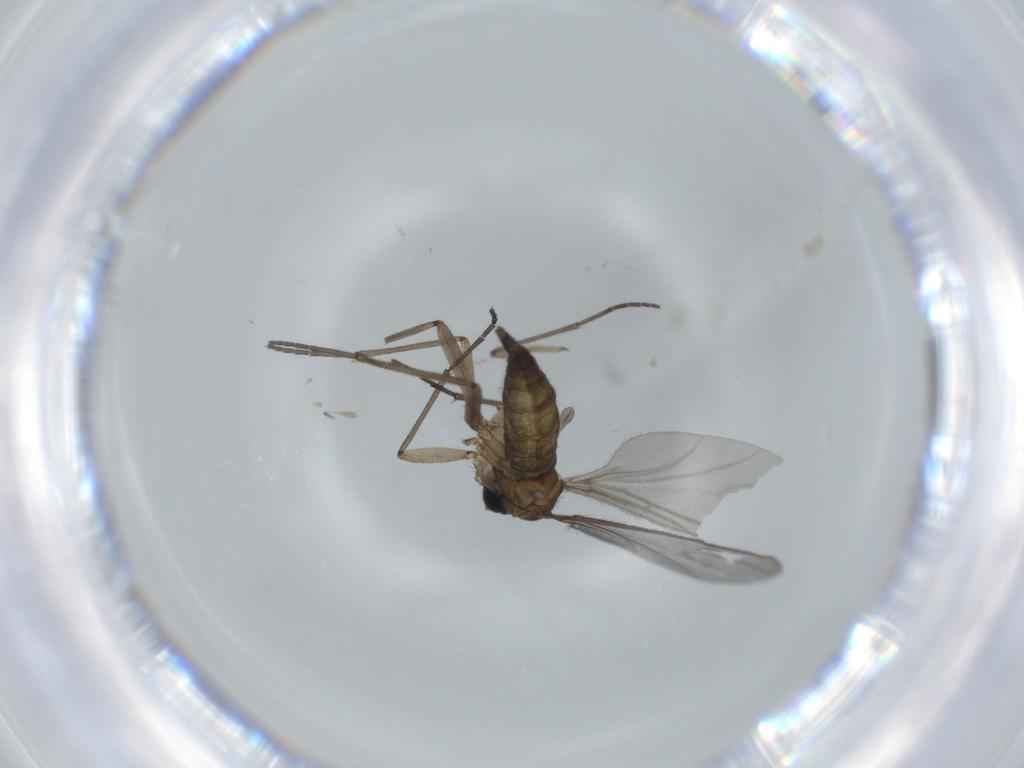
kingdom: Animalia
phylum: Arthropoda
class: Insecta
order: Diptera
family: Sciaridae
